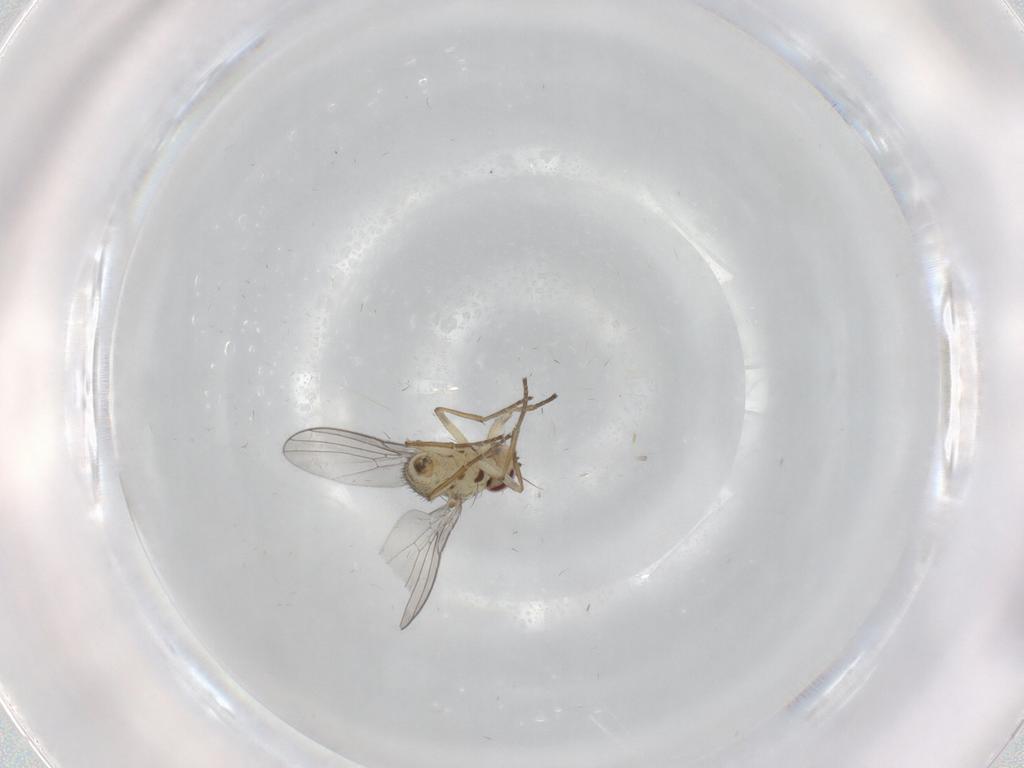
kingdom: Animalia
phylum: Arthropoda
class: Insecta
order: Diptera
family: Agromyzidae
